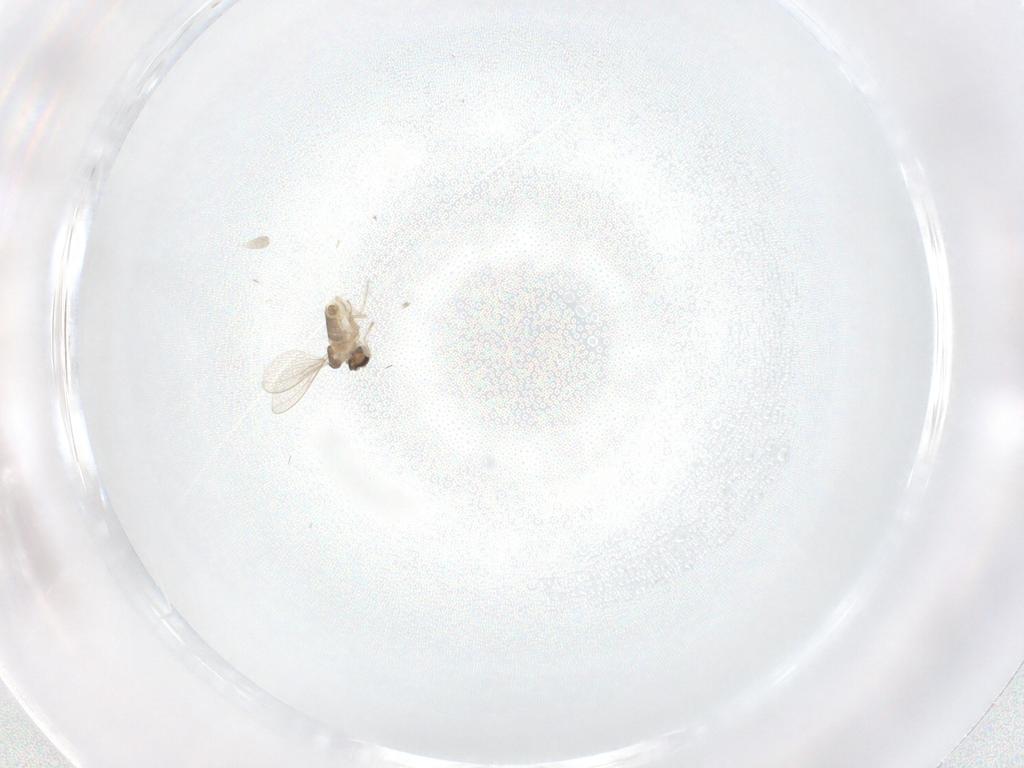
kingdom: Animalia
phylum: Arthropoda
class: Insecta
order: Diptera
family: Cecidomyiidae
